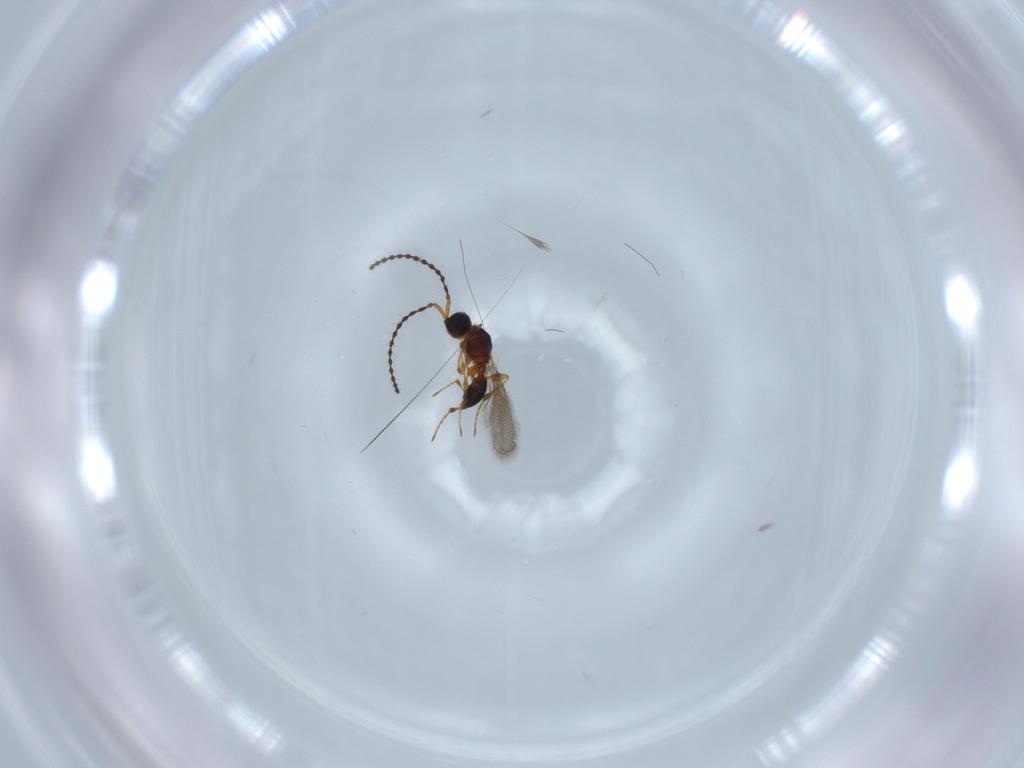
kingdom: Animalia
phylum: Arthropoda
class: Insecta
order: Hymenoptera
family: Diapriidae
